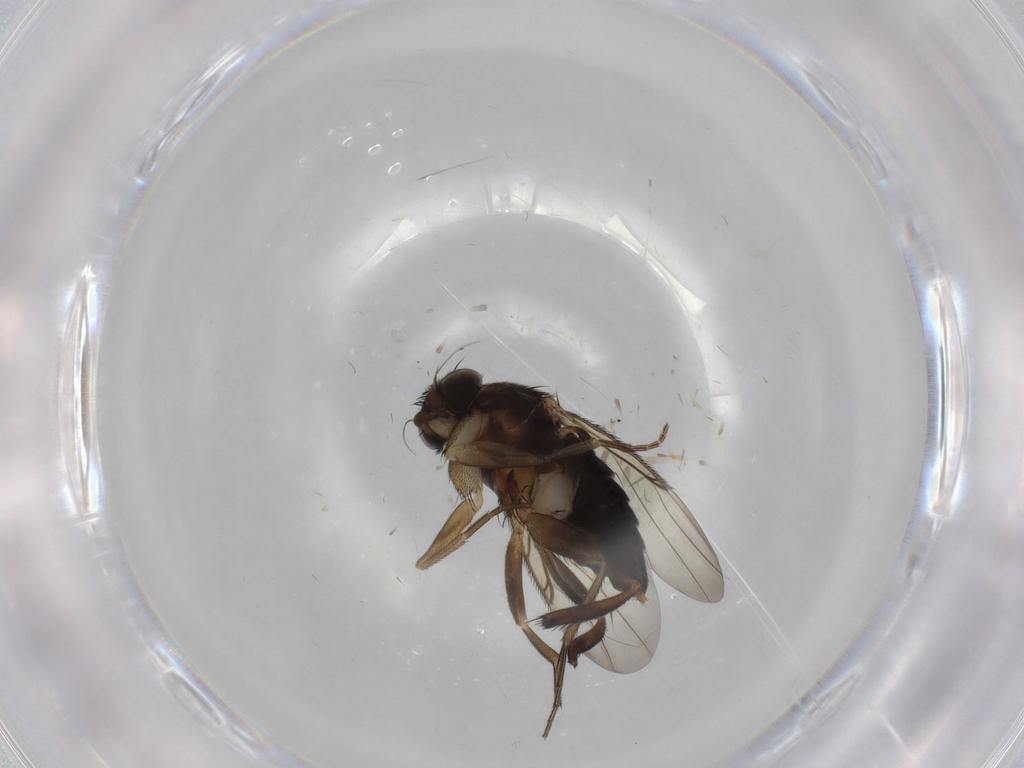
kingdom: Animalia
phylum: Arthropoda
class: Insecta
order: Diptera
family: Phoridae
